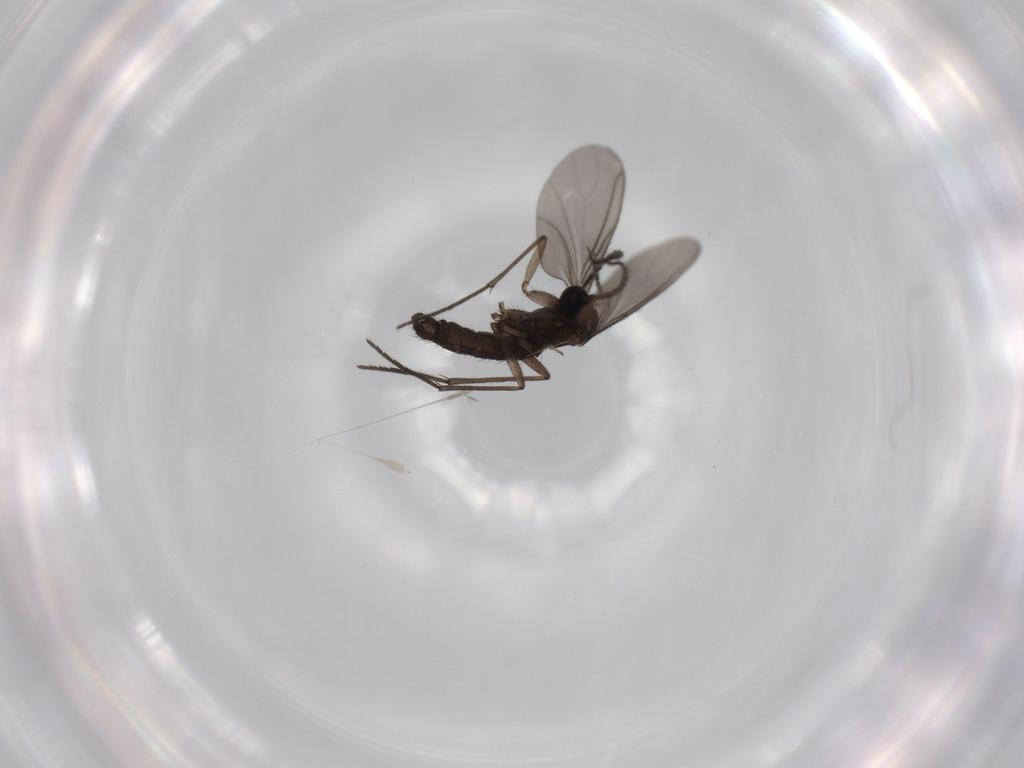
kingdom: Animalia
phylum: Arthropoda
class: Insecta
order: Diptera
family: Sciaridae
